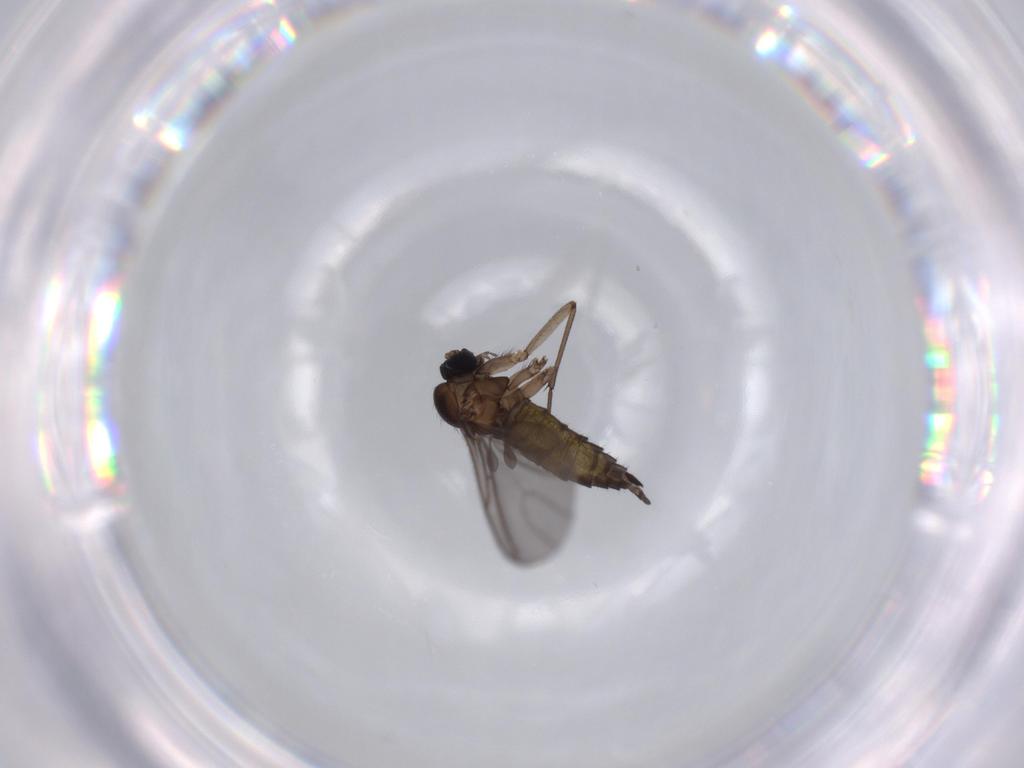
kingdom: Animalia
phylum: Arthropoda
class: Insecta
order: Diptera
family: Sciaridae
